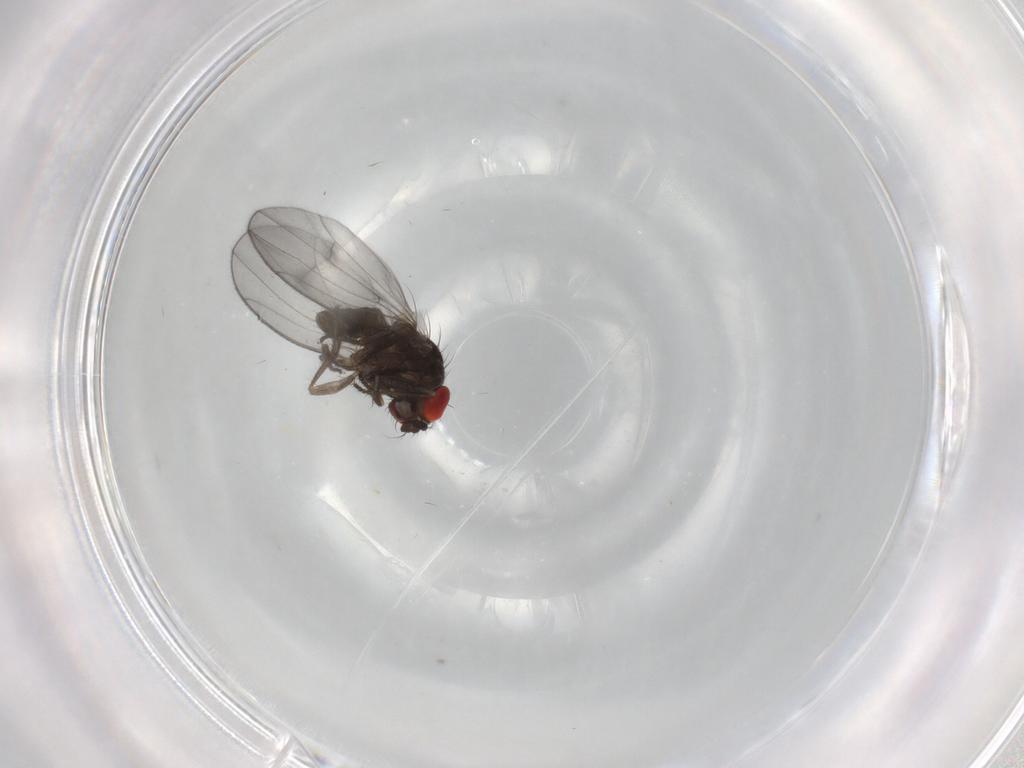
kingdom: Animalia
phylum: Arthropoda
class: Insecta
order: Diptera
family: Drosophilidae
